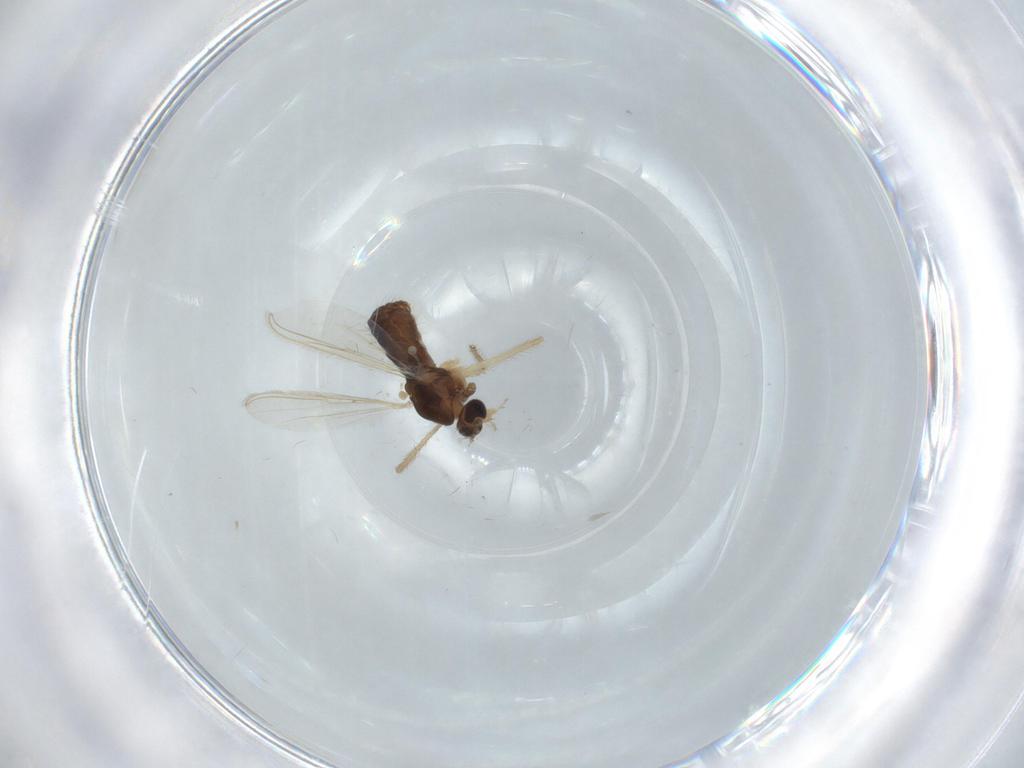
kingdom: Animalia
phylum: Arthropoda
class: Insecta
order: Diptera
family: Chironomidae
